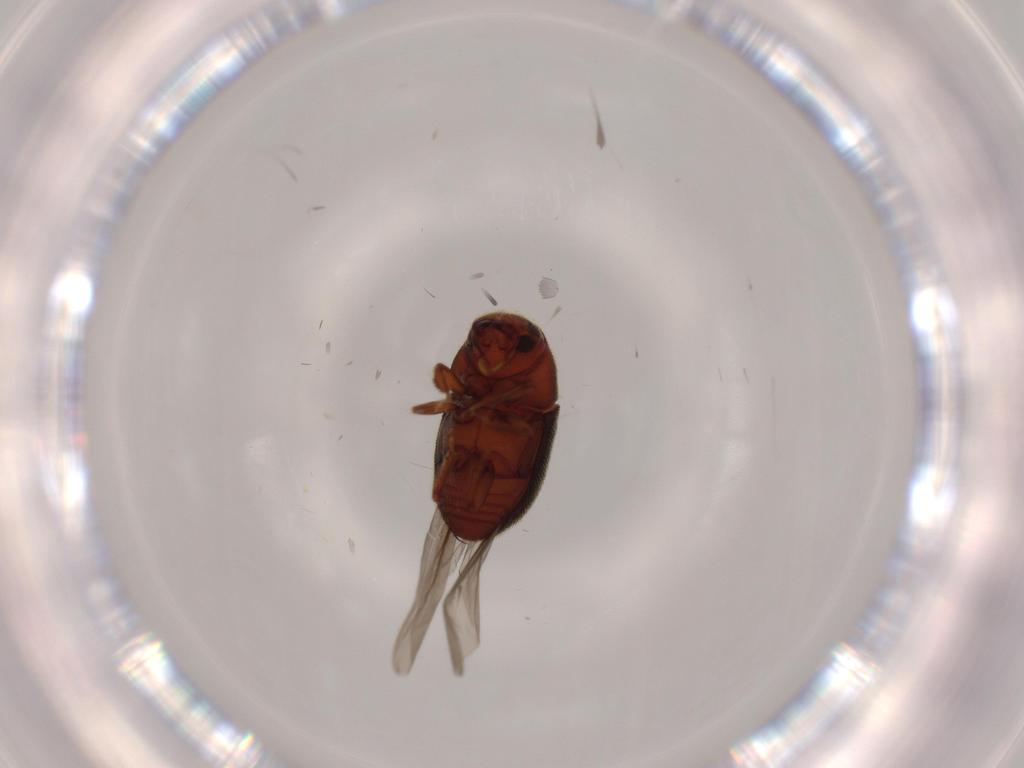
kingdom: Animalia
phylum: Arthropoda
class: Insecta
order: Coleoptera
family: Curculionidae
